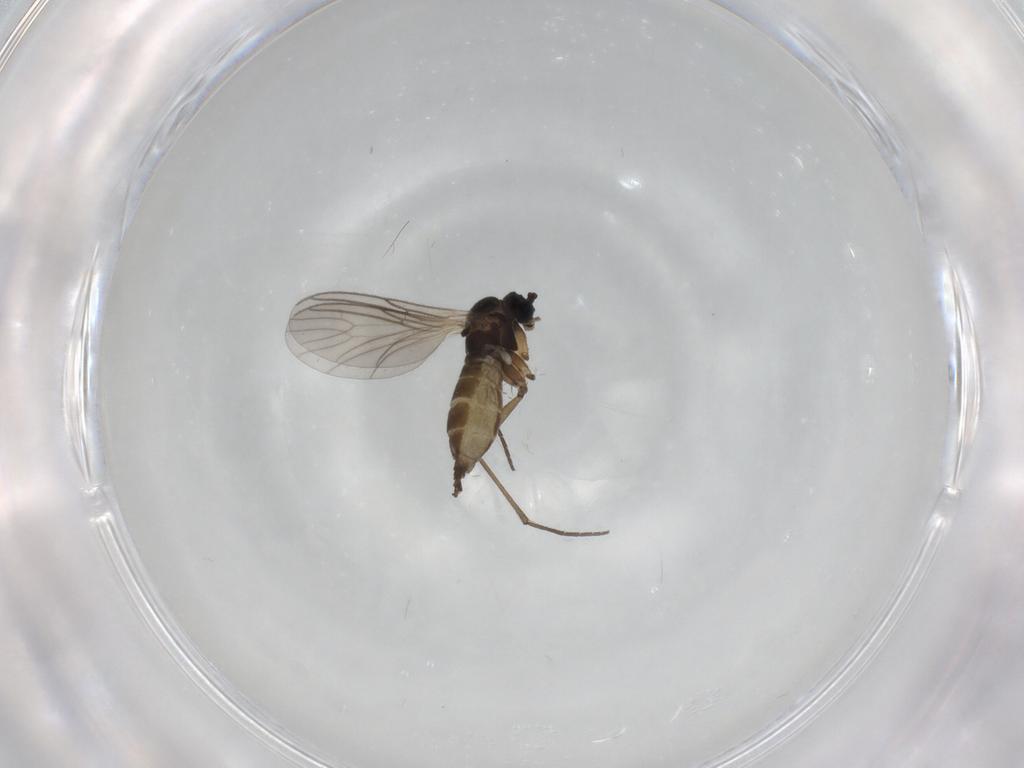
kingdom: Animalia
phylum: Arthropoda
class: Insecta
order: Diptera
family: Sciaridae
